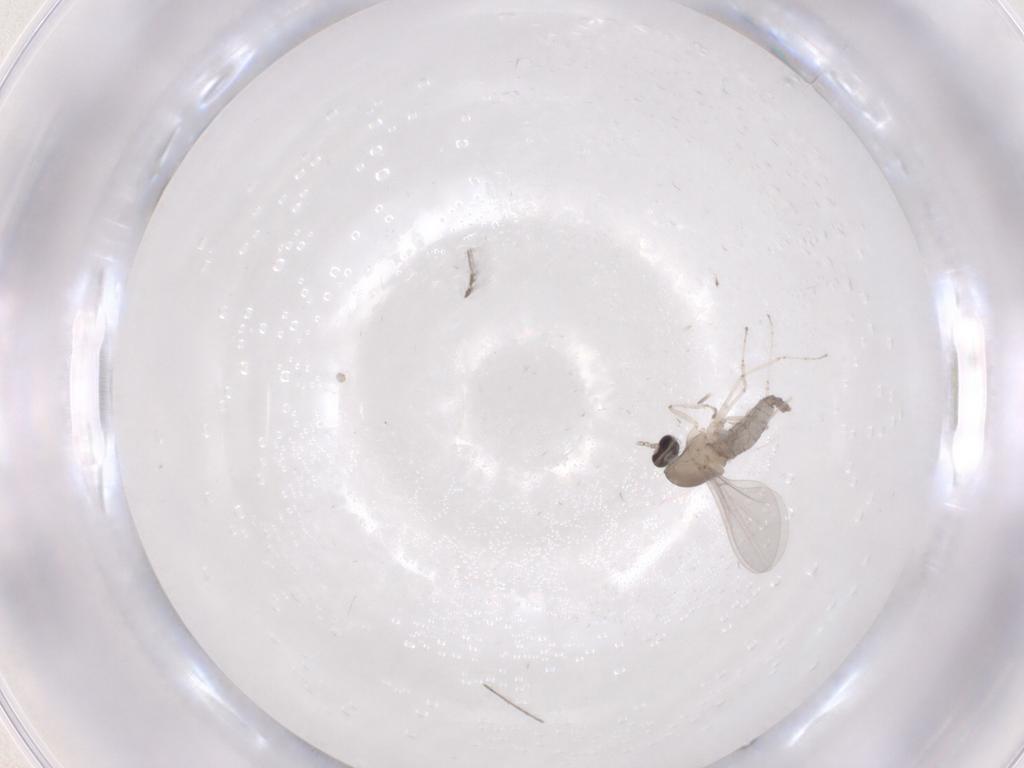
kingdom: Animalia
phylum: Arthropoda
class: Insecta
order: Diptera
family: Cecidomyiidae
